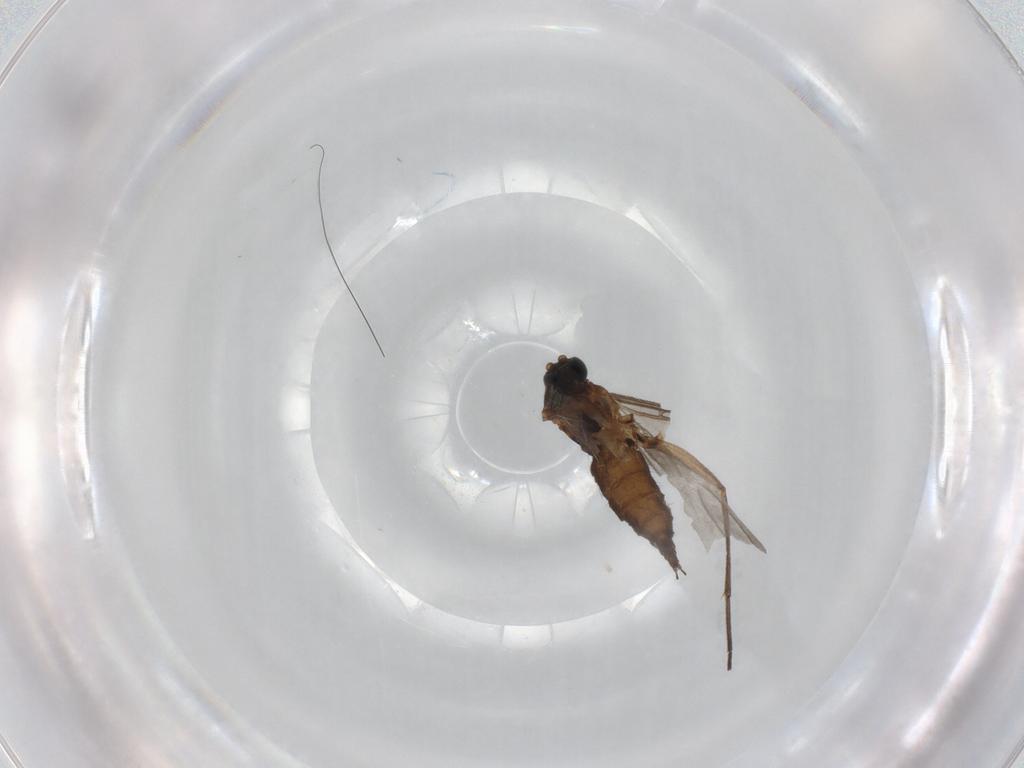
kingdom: Animalia
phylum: Arthropoda
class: Insecta
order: Diptera
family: Sciaridae
